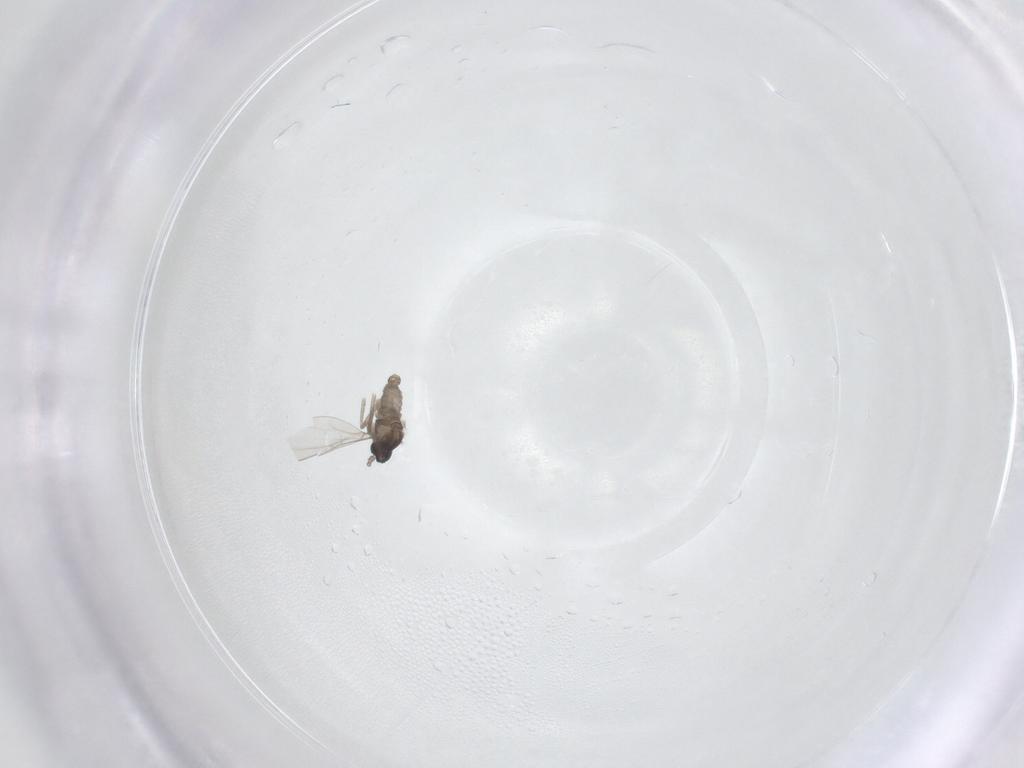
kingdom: Animalia
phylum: Arthropoda
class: Insecta
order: Diptera
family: Cecidomyiidae
